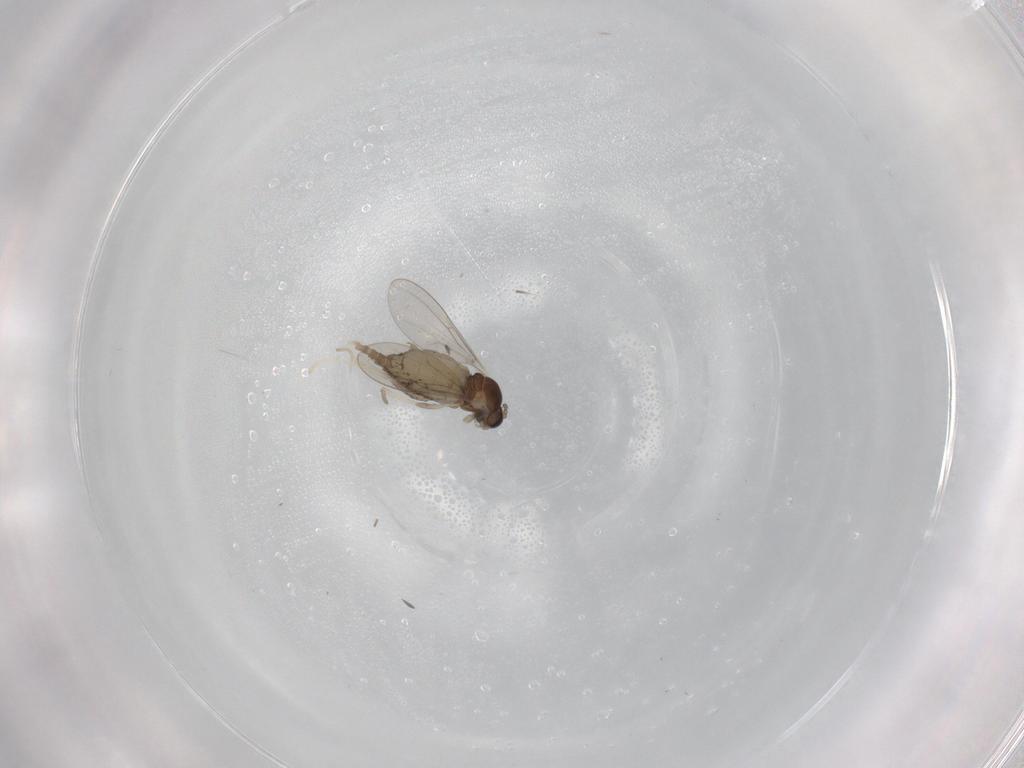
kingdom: Animalia
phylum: Arthropoda
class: Insecta
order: Diptera
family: Cecidomyiidae
